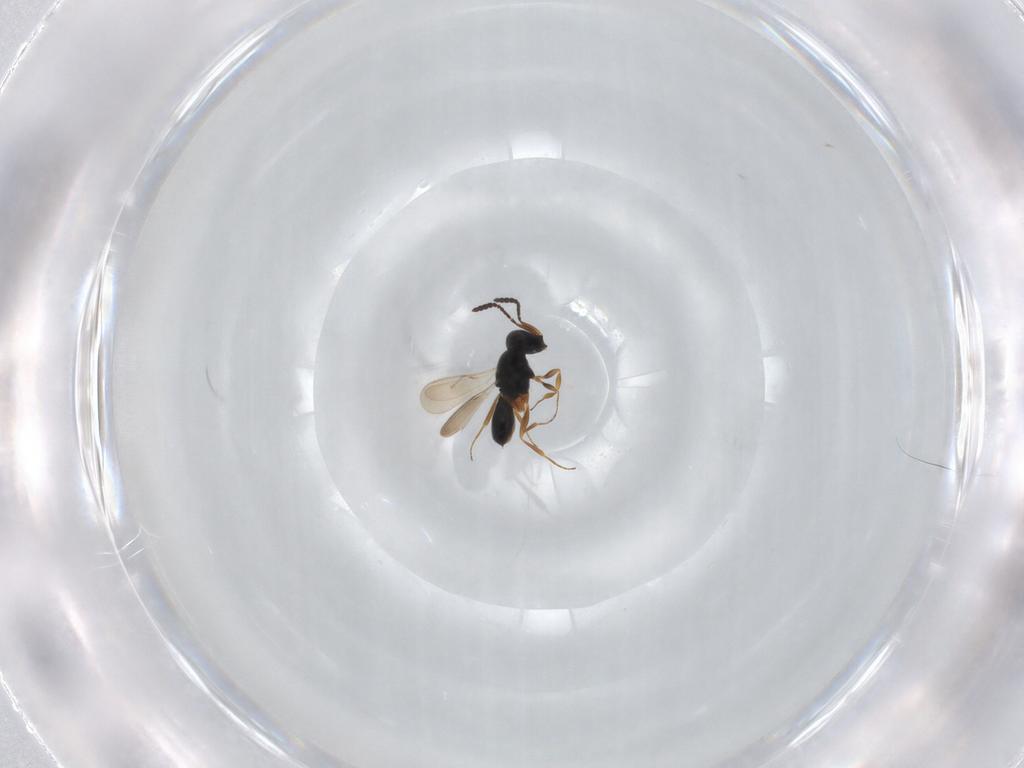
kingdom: Animalia
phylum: Arthropoda
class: Insecta
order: Hymenoptera
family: Scelionidae
